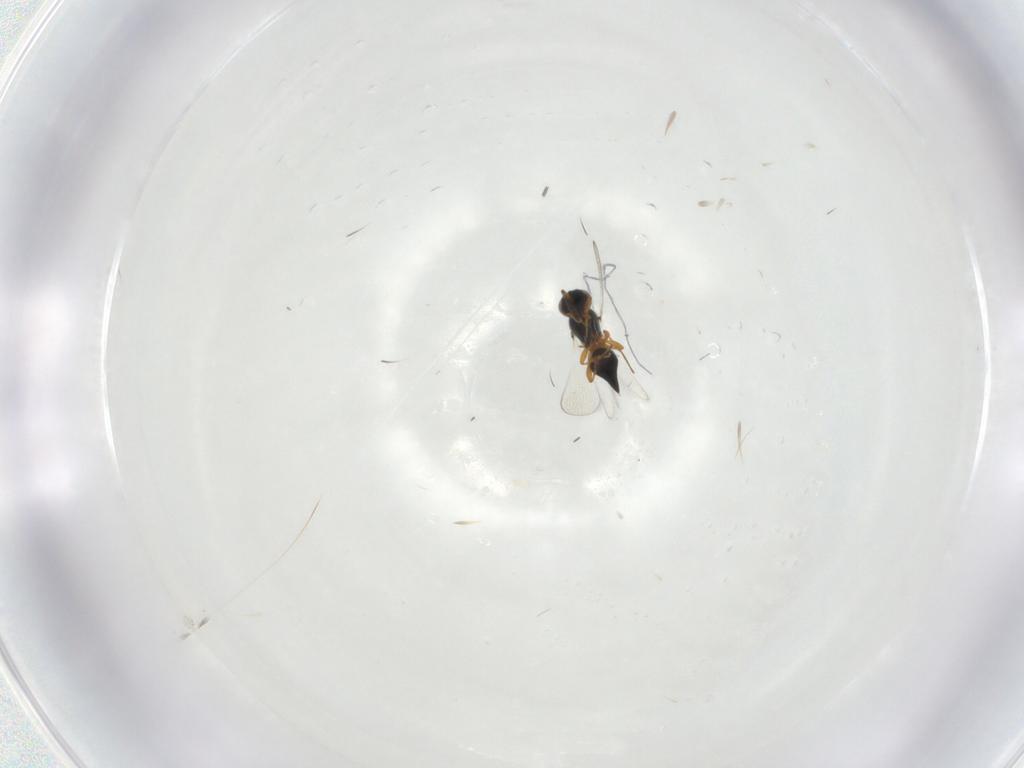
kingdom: Animalia
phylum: Arthropoda
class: Insecta
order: Hymenoptera
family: Platygastridae
